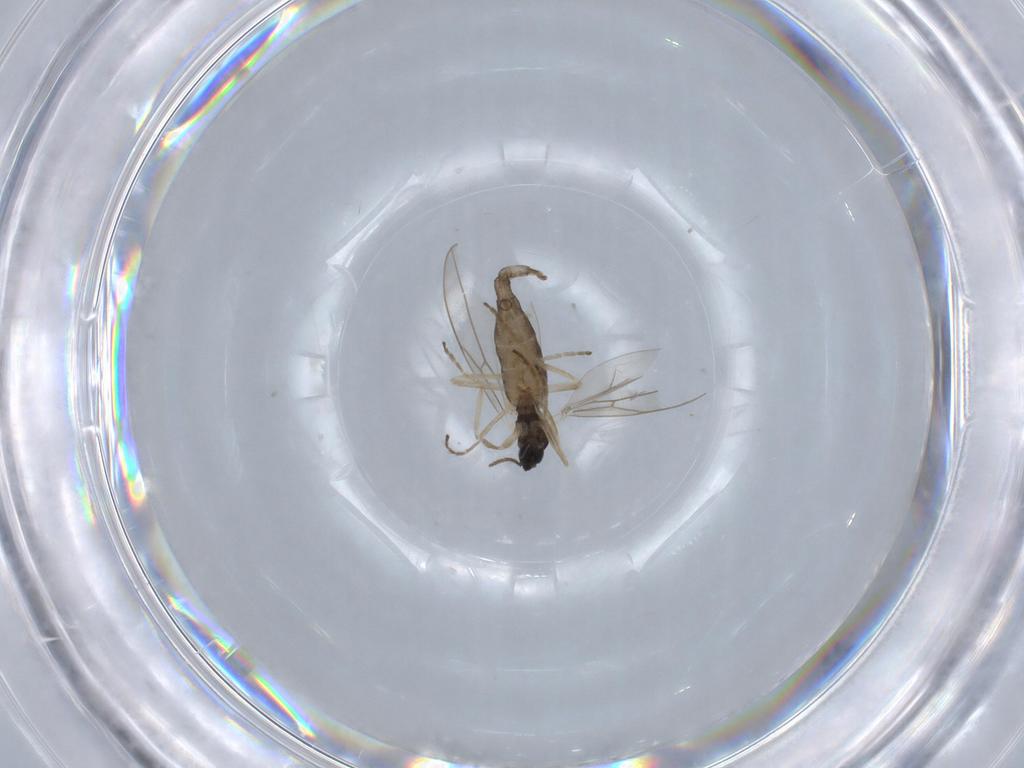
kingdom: Animalia
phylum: Arthropoda
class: Insecta
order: Diptera
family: Cecidomyiidae
